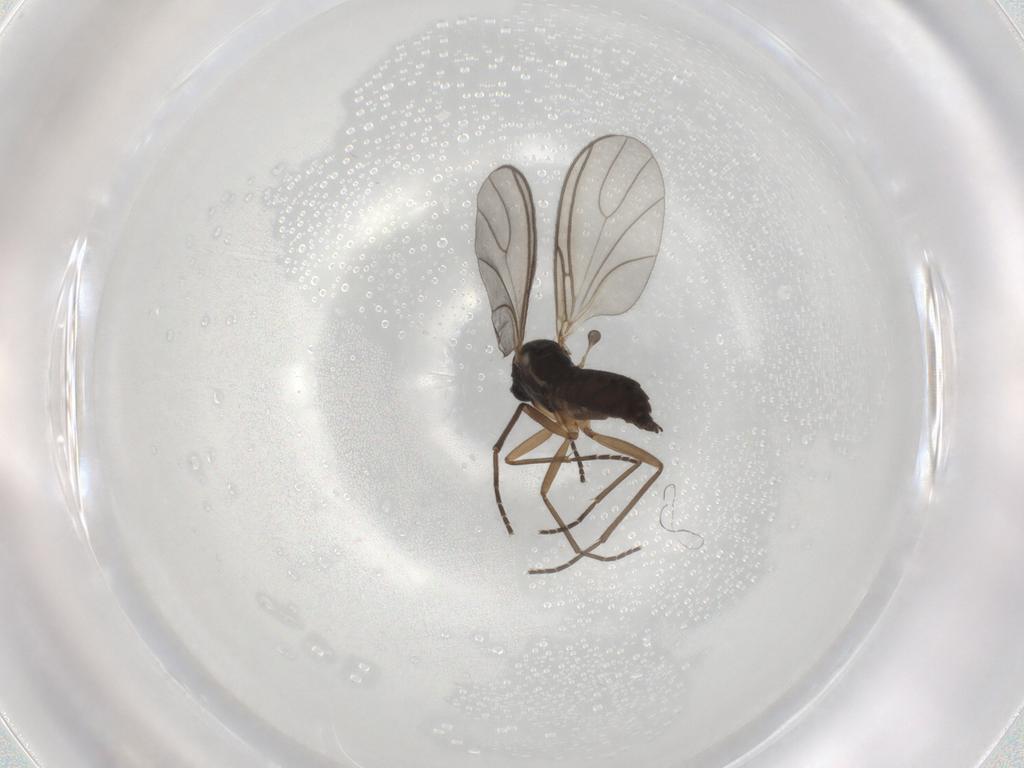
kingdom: Animalia
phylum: Arthropoda
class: Insecta
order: Diptera
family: Sciaridae
